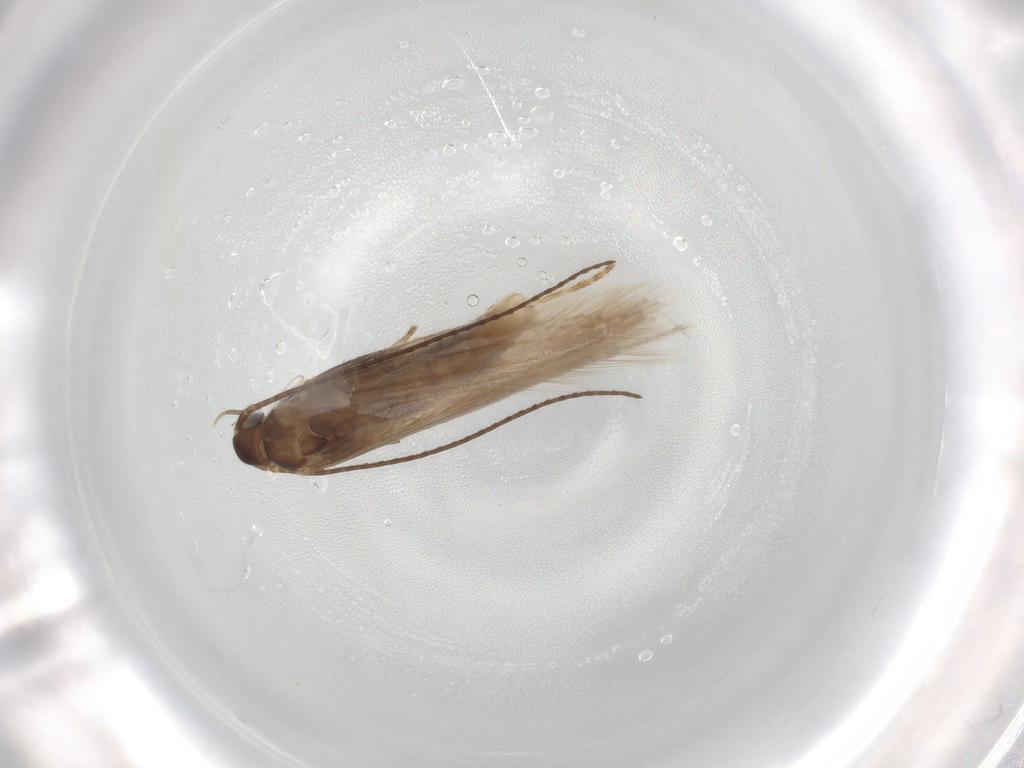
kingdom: Animalia
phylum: Arthropoda
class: Insecta
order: Lepidoptera
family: Coleophoridae
